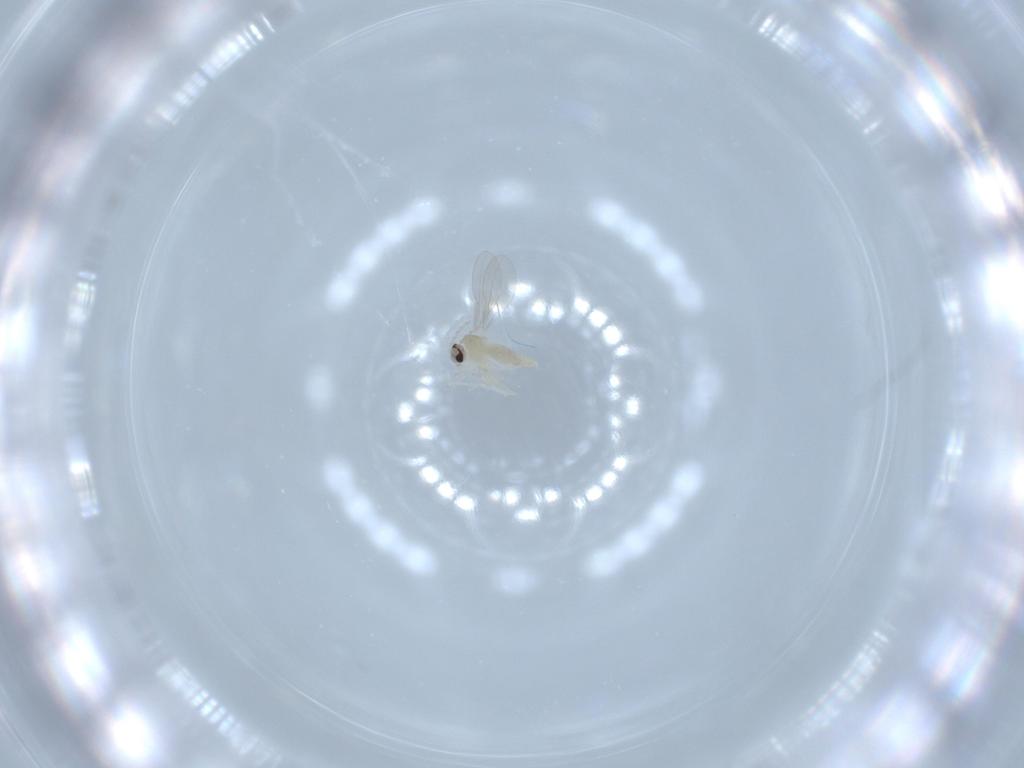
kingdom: Animalia
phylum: Arthropoda
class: Insecta
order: Diptera
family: Cecidomyiidae
